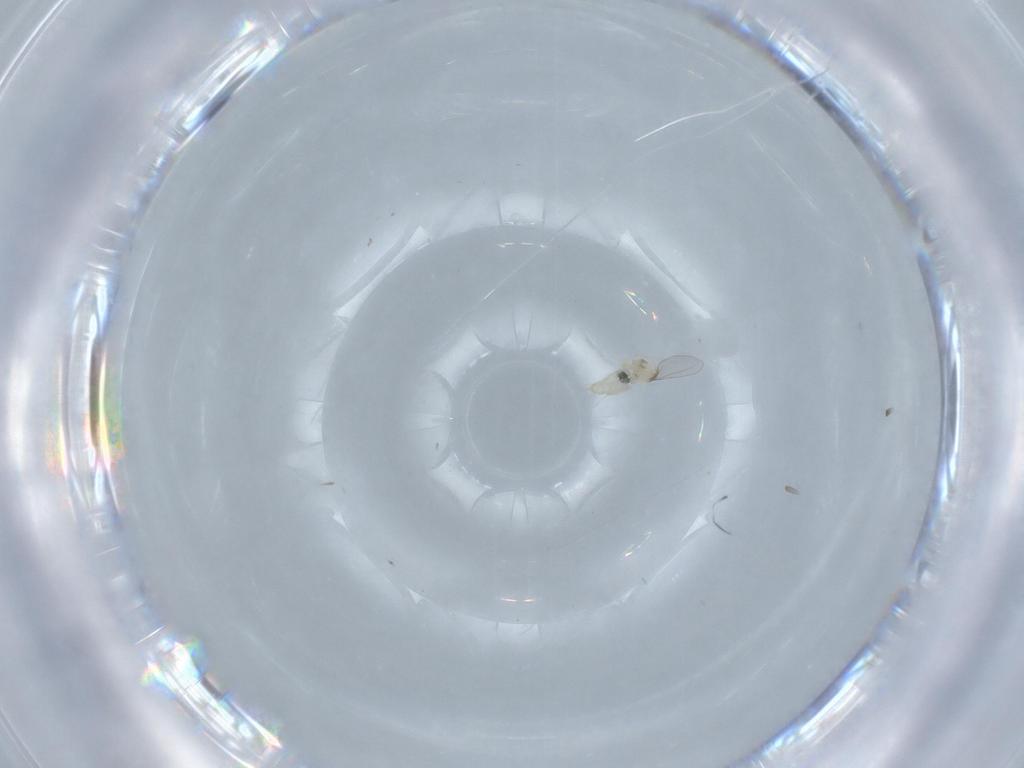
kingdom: Animalia
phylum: Arthropoda
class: Insecta
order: Diptera
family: Cecidomyiidae
